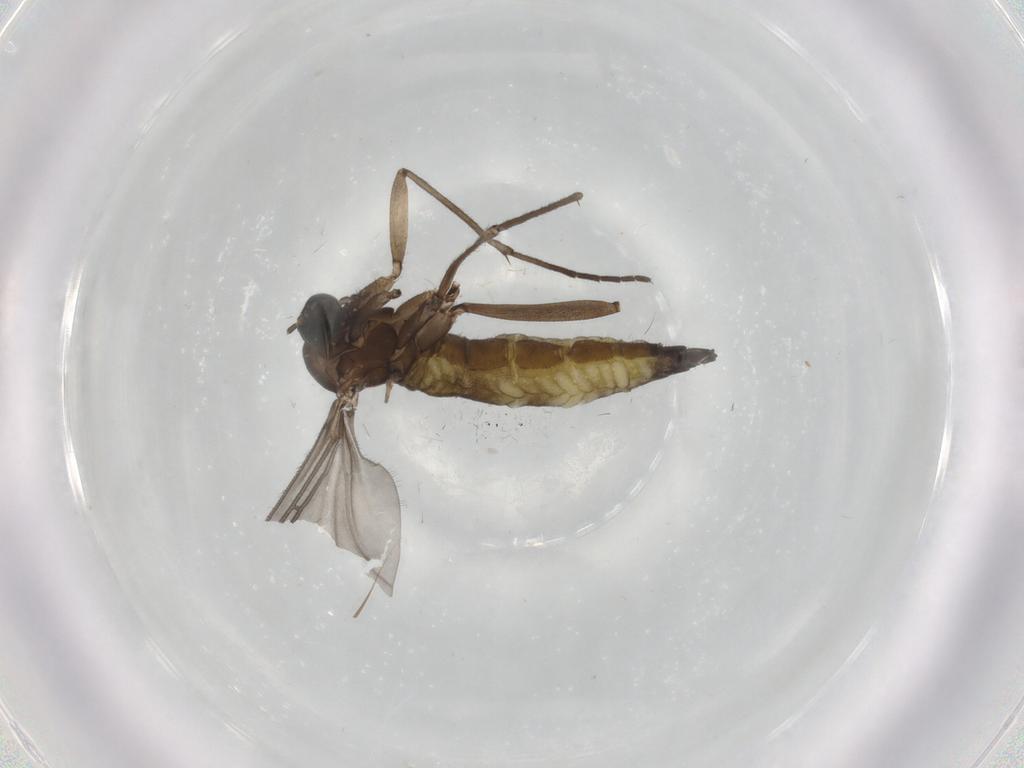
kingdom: Animalia
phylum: Arthropoda
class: Insecta
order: Diptera
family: Sciaridae
